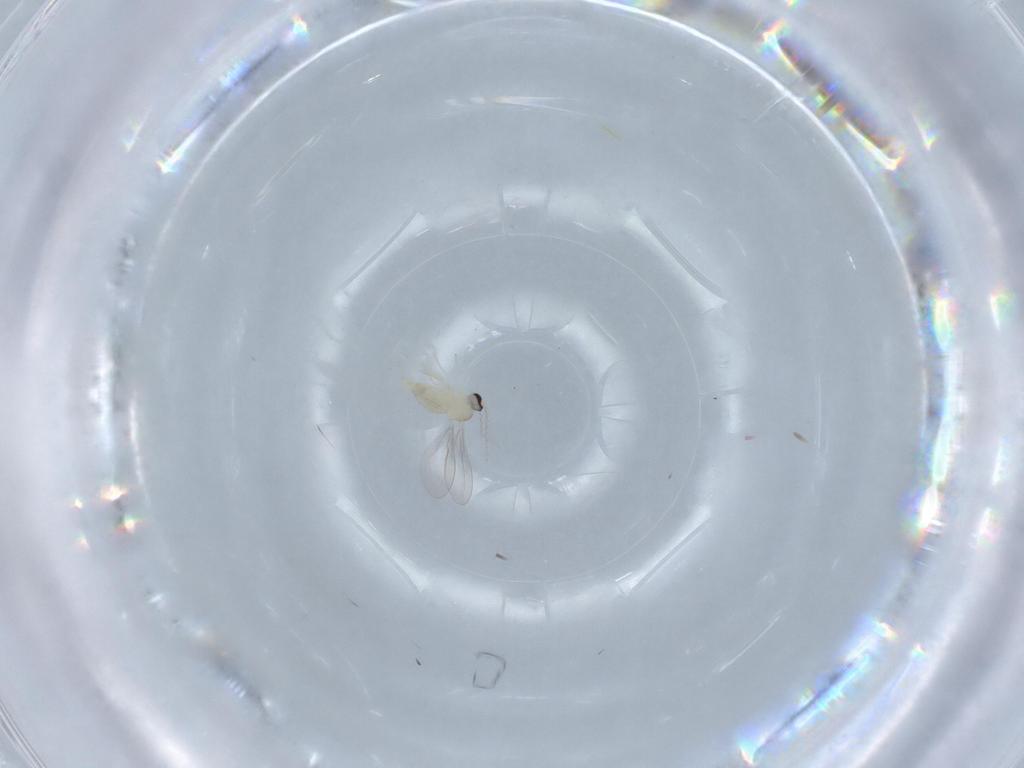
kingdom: Animalia
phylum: Arthropoda
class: Insecta
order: Diptera
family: Cecidomyiidae
